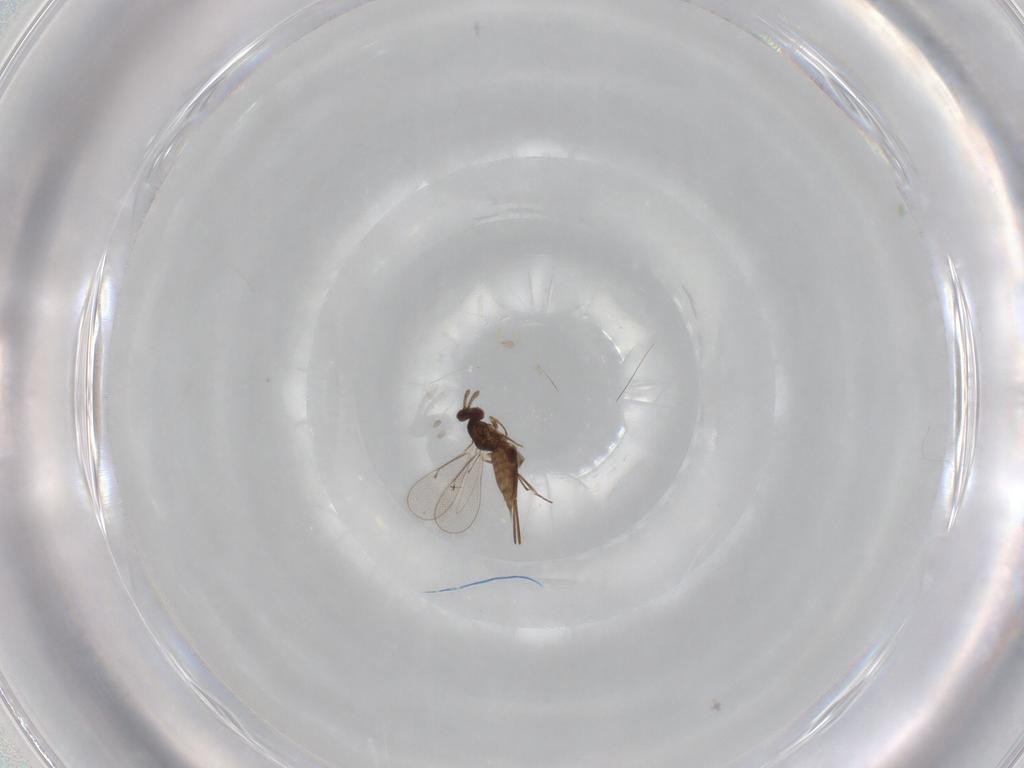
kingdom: Animalia
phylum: Arthropoda
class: Insecta
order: Hymenoptera
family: Eulophidae
